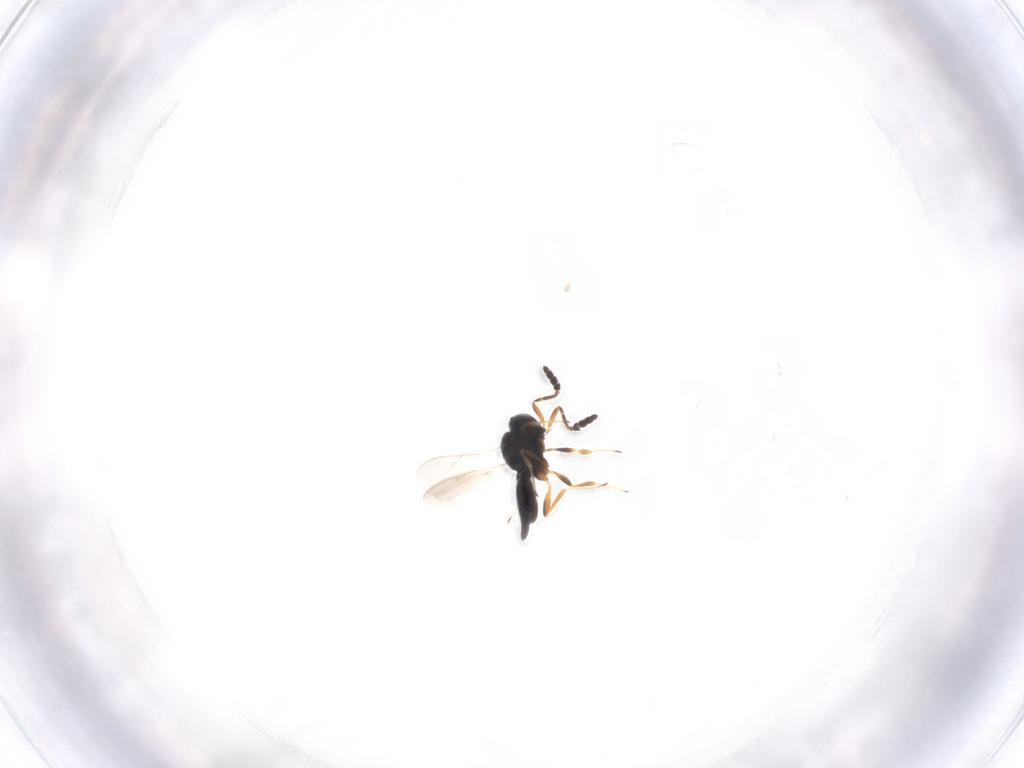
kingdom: Animalia
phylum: Arthropoda
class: Insecta
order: Hymenoptera
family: Scelionidae
